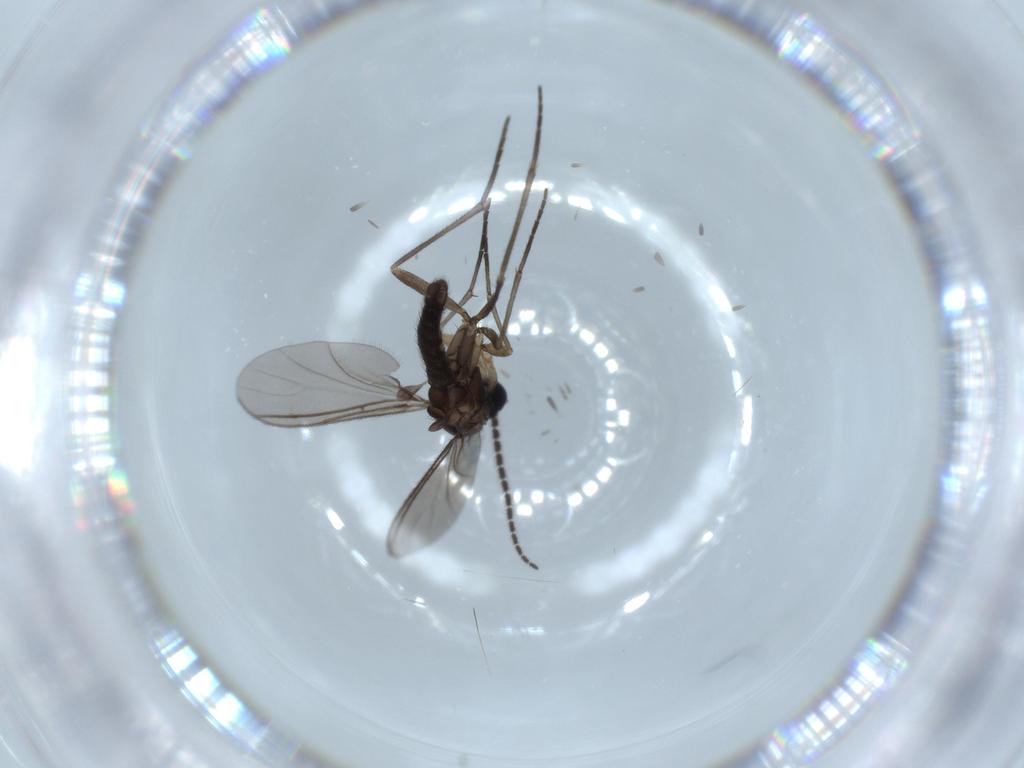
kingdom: Animalia
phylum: Arthropoda
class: Insecta
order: Diptera
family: Sciaridae
